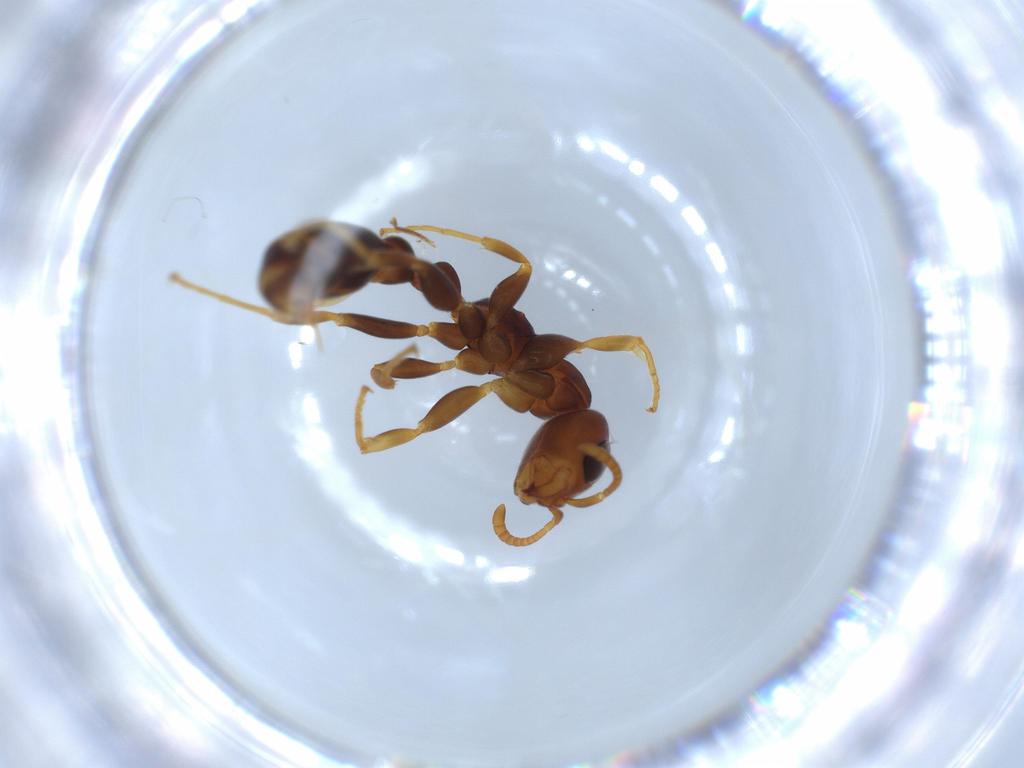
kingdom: Animalia
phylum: Arthropoda
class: Insecta
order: Hymenoptera
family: Formicidae
